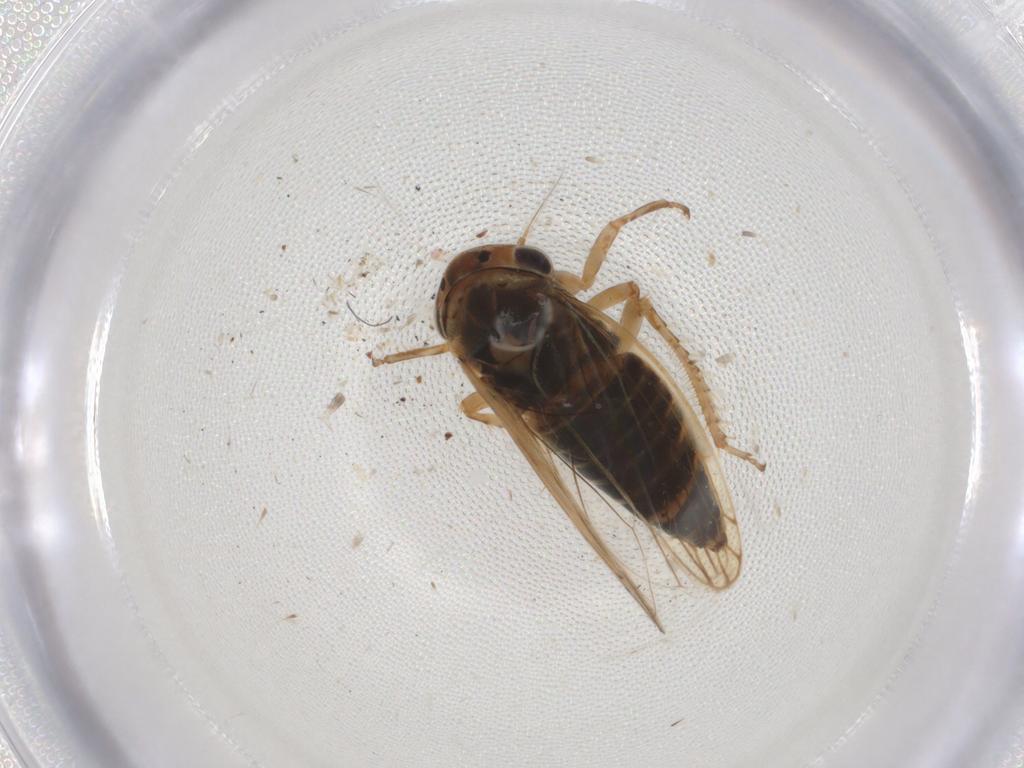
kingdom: Animalia
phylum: Arthropoda
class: Insecta
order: Hemiptera
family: Cicadellidae
